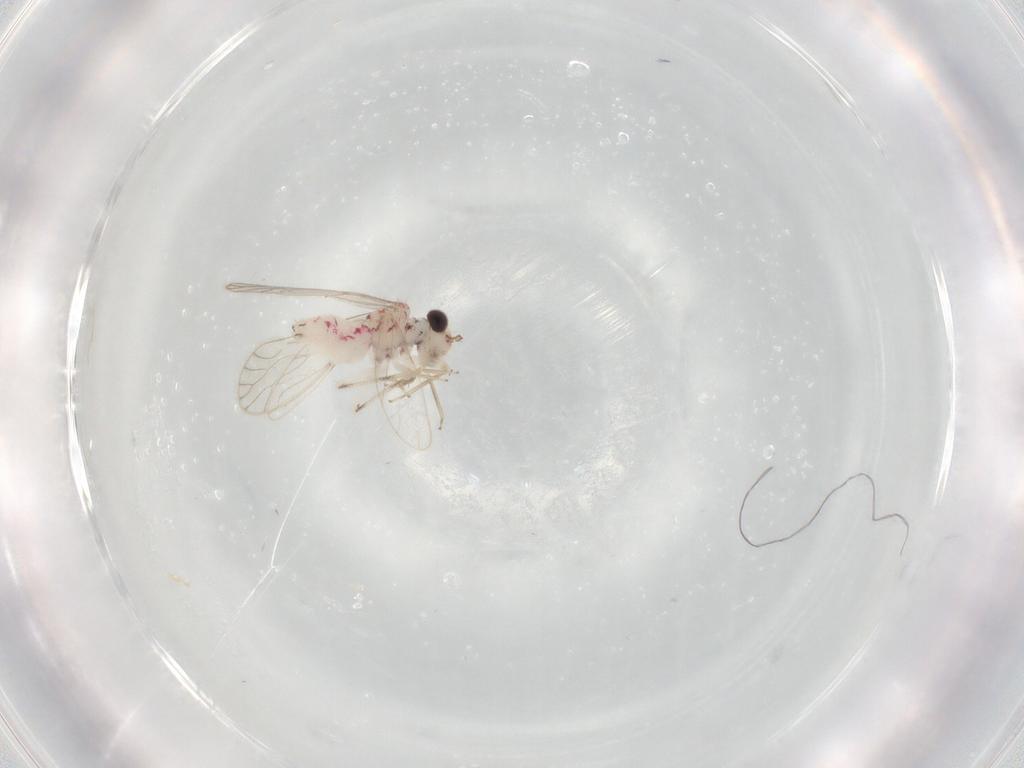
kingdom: Animalia
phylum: Arthropoda
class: Insecta
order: Psocodea
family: Caeciliusidae
